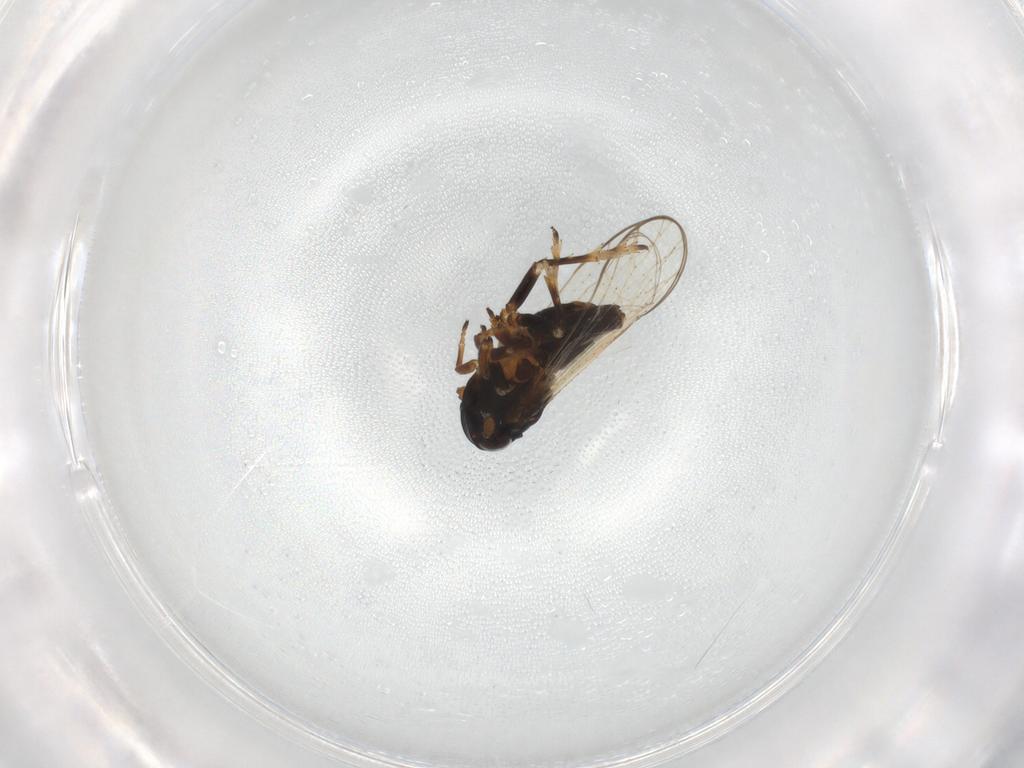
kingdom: Animalia
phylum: Arthropoda
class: Insecta
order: Hemiptera
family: Delphacidae
